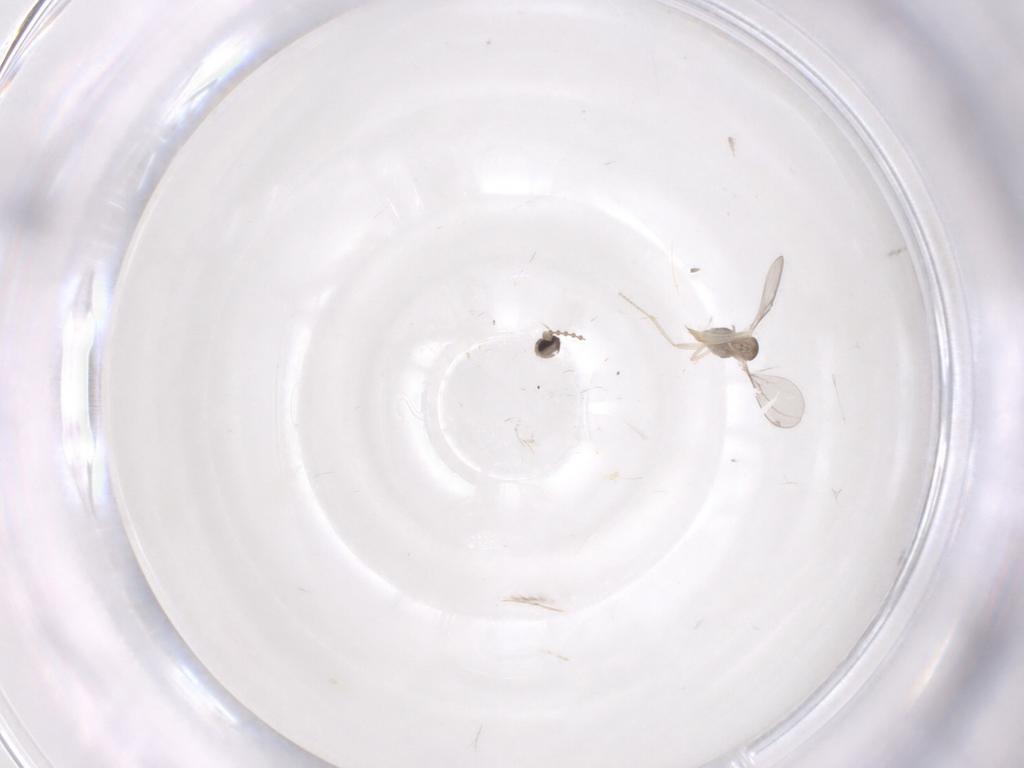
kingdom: Animalia
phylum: Arthropoda
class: Insecta
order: Diptera
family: Cecidomyiidae
